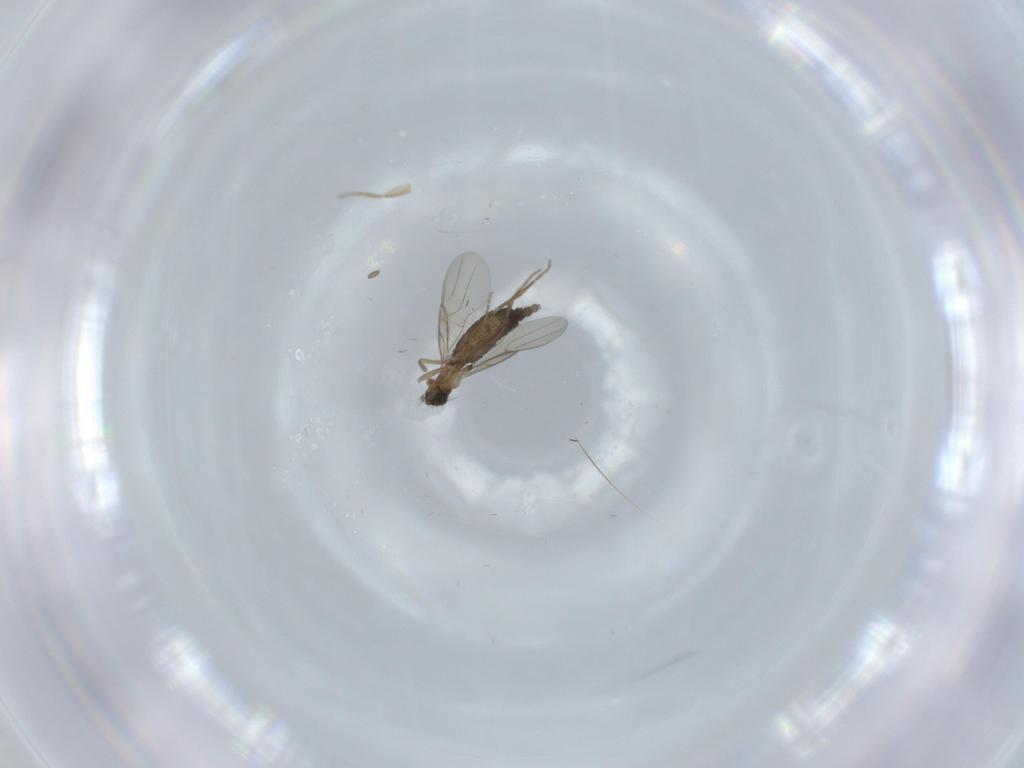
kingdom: Animalia
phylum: Arthropoda
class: Insecta
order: Diptera
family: Phoridae
